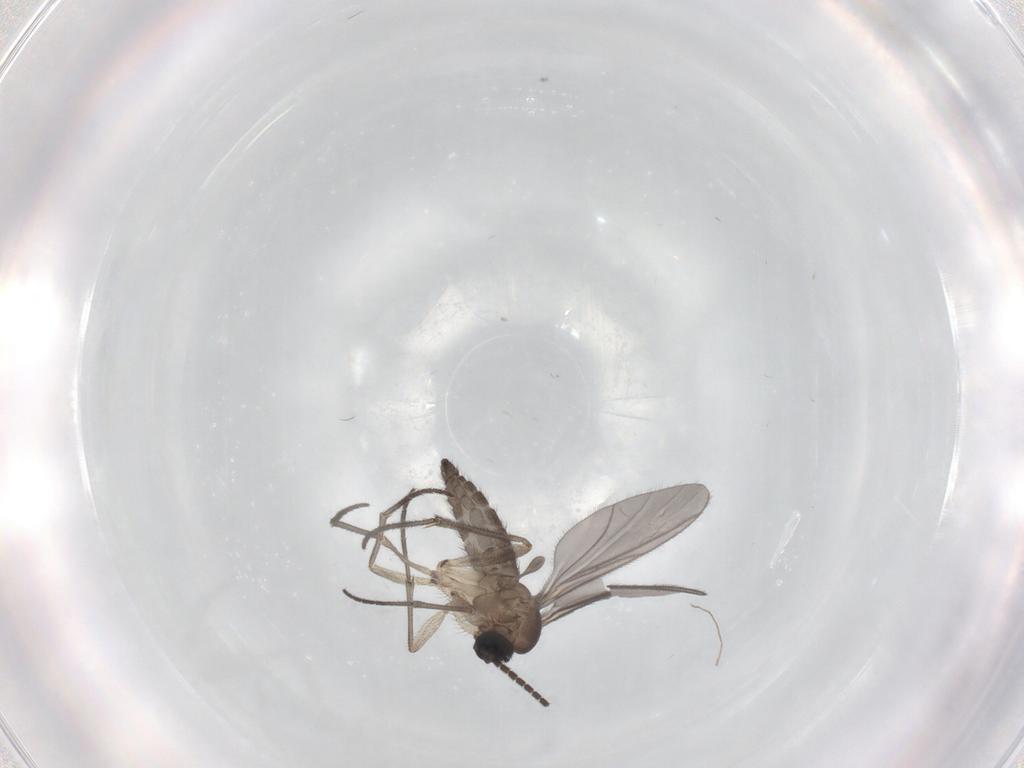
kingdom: Animalia
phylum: Arthropoda
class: Insecta
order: Diptera
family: Sciaridae
